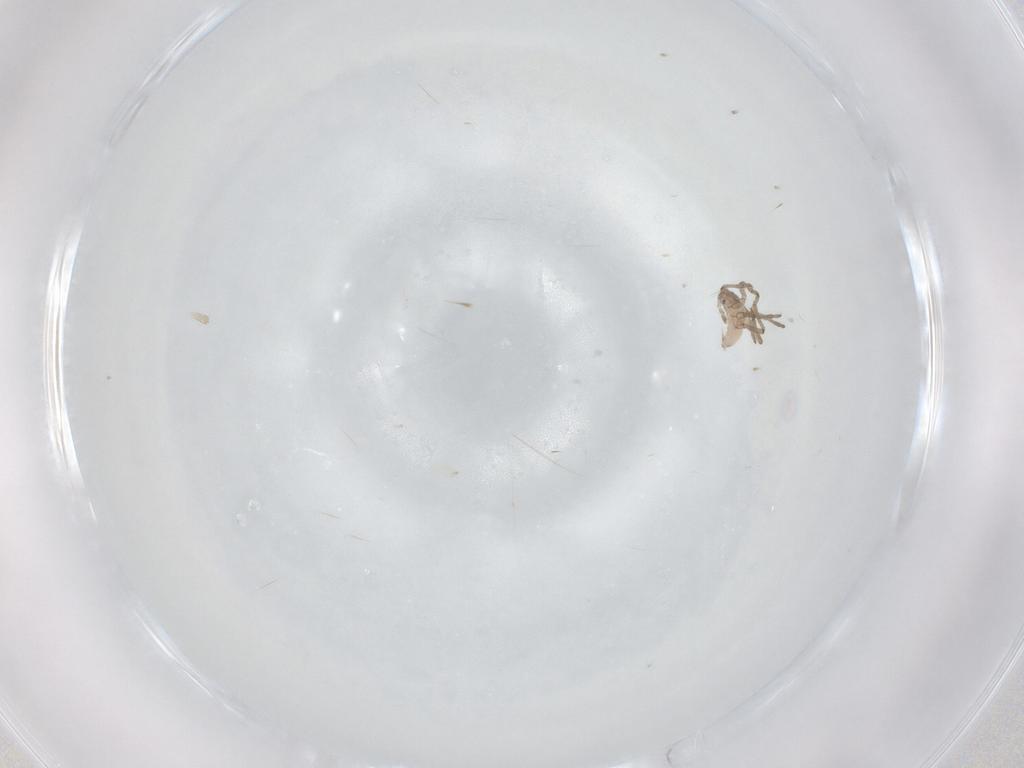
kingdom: Animalia
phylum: Arthropoda
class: Insecta
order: Hemiptera
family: Aphididae
